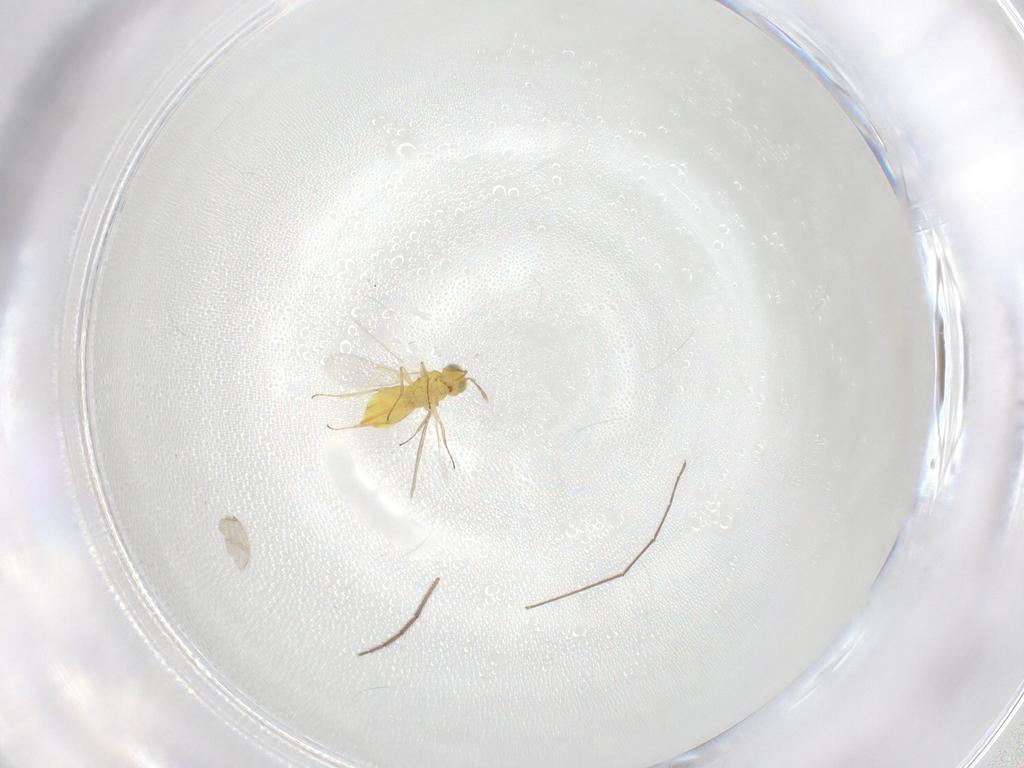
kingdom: Animalia
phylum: Arthropoda
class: Insecta
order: Hymenoptera
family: Aphelinidae
